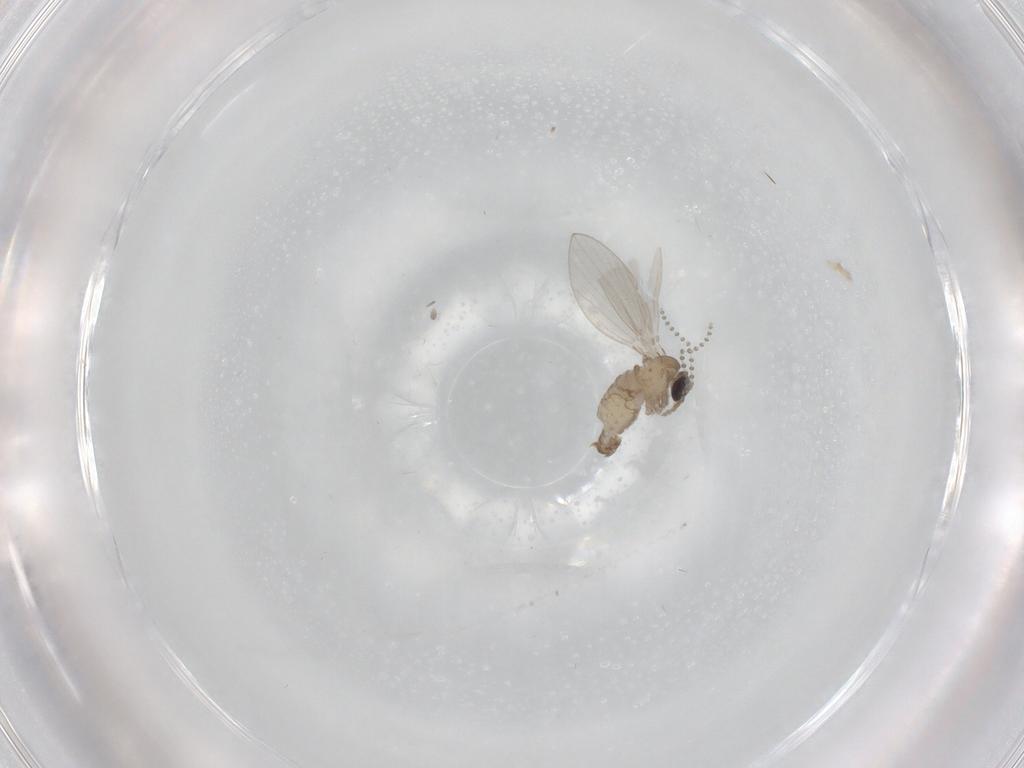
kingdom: Animalia
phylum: Arthropoda
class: Insecta
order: Diptera
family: Psychodidae
